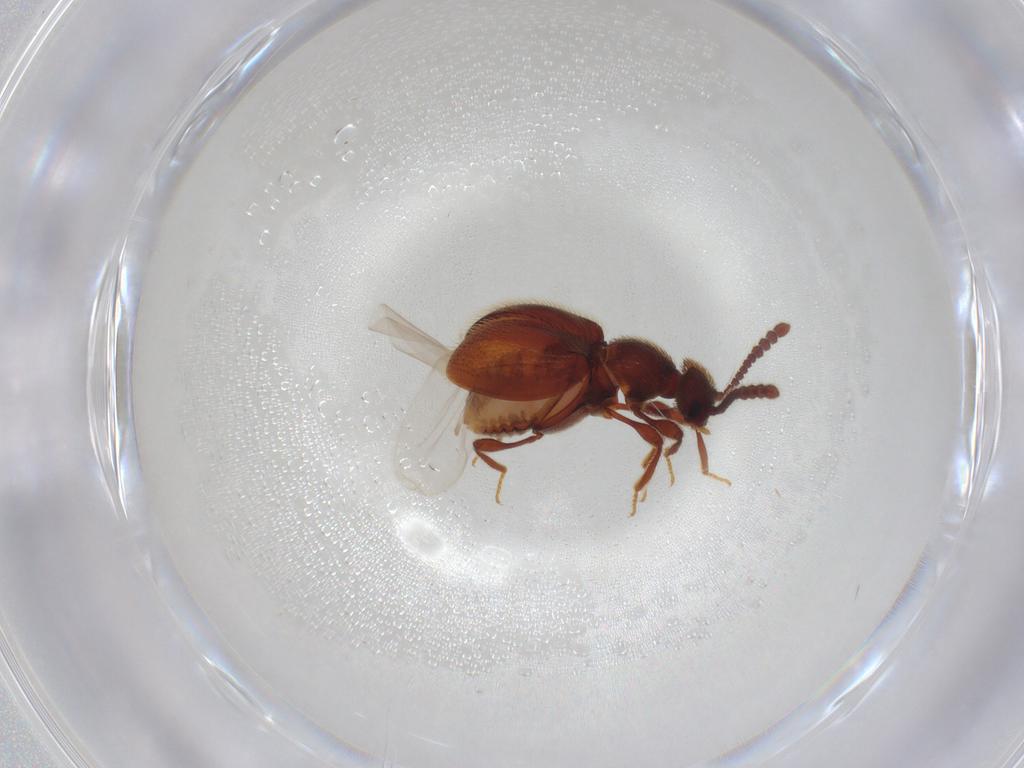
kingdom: Animalia
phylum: Arthropoda
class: Insecta
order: Coleoptera
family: Staphylinidae
